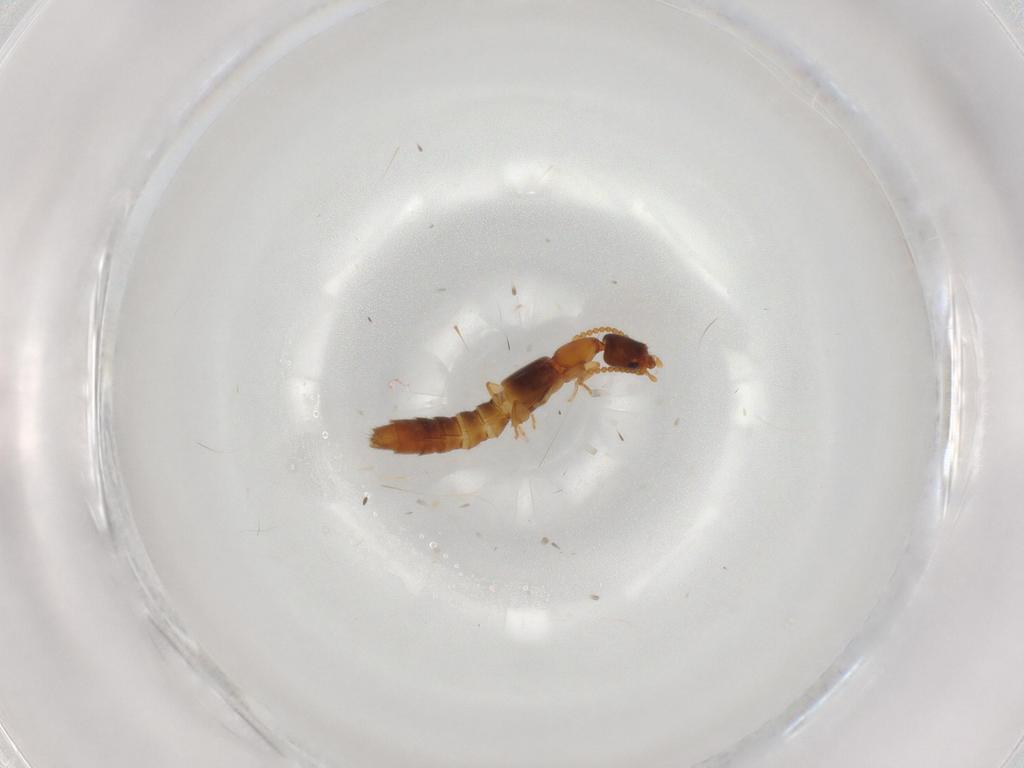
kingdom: Animalia
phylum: Arthropoda
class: Insecta
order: Coleoptera
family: Staphylinidae
